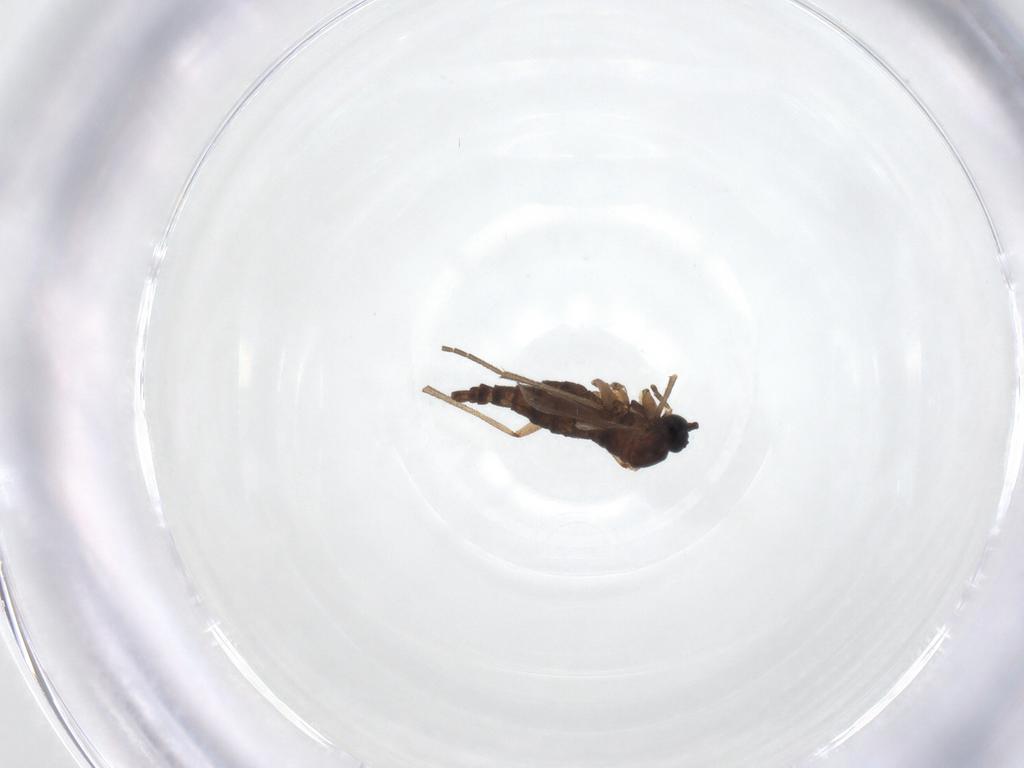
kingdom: Animalia
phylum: Arthropoda
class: Insecta
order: Diptera
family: Sciaridae
